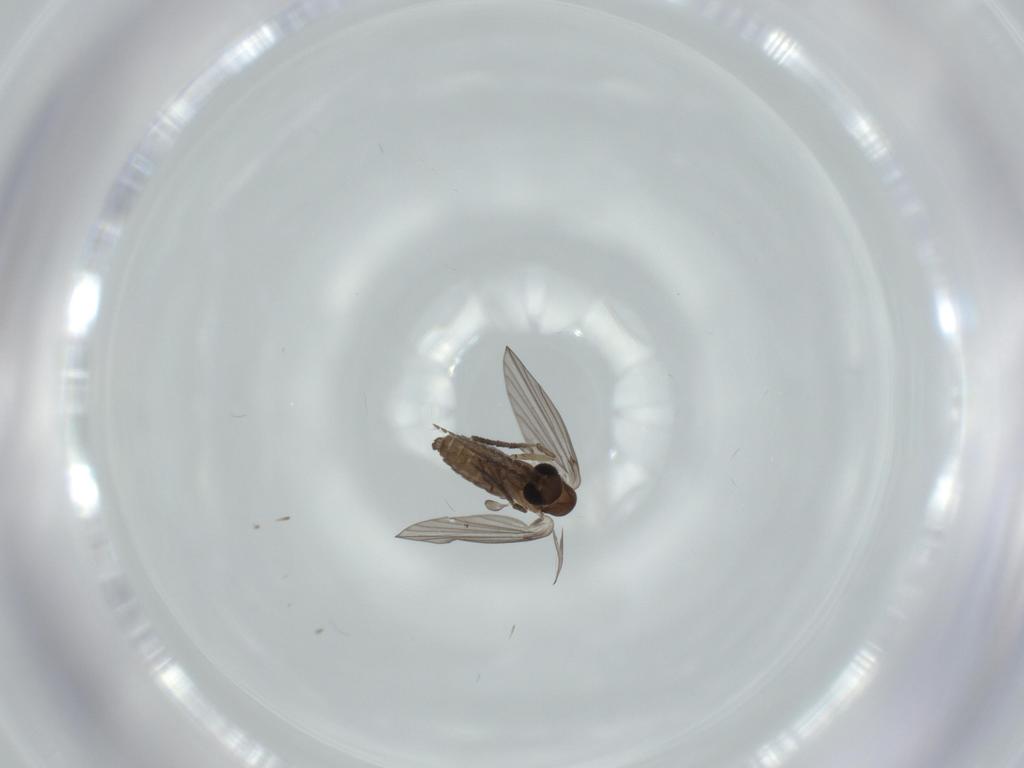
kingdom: Animalia
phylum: Arthropoda
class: Insecta
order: Diptera
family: Psychodidae
